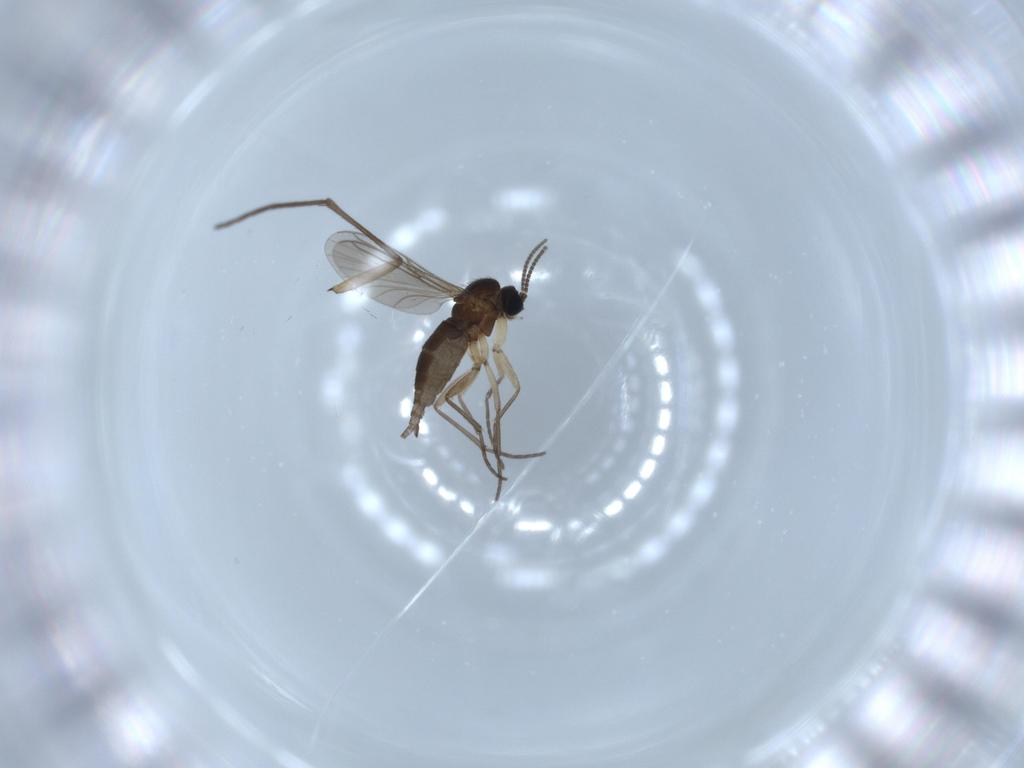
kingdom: Animalia
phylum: Arthropoda
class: Insecta
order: Diptera
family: Sciaridae
